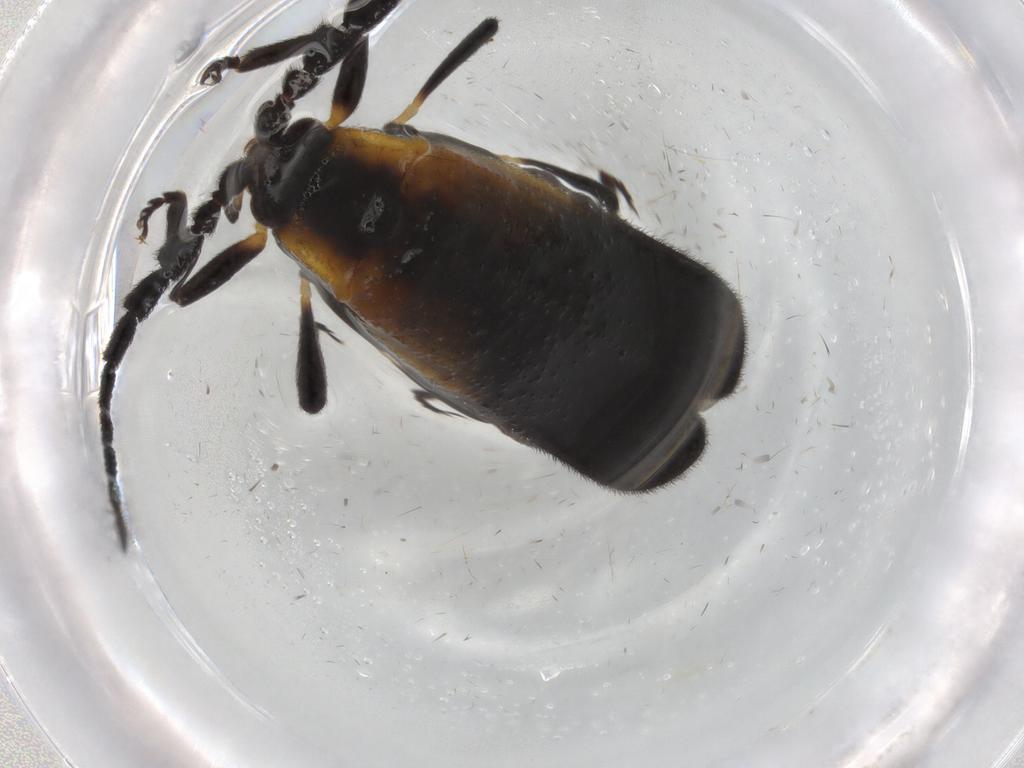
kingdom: Animalia
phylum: Arthropoda
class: Insecta
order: Coleoptera
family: Lycidae
